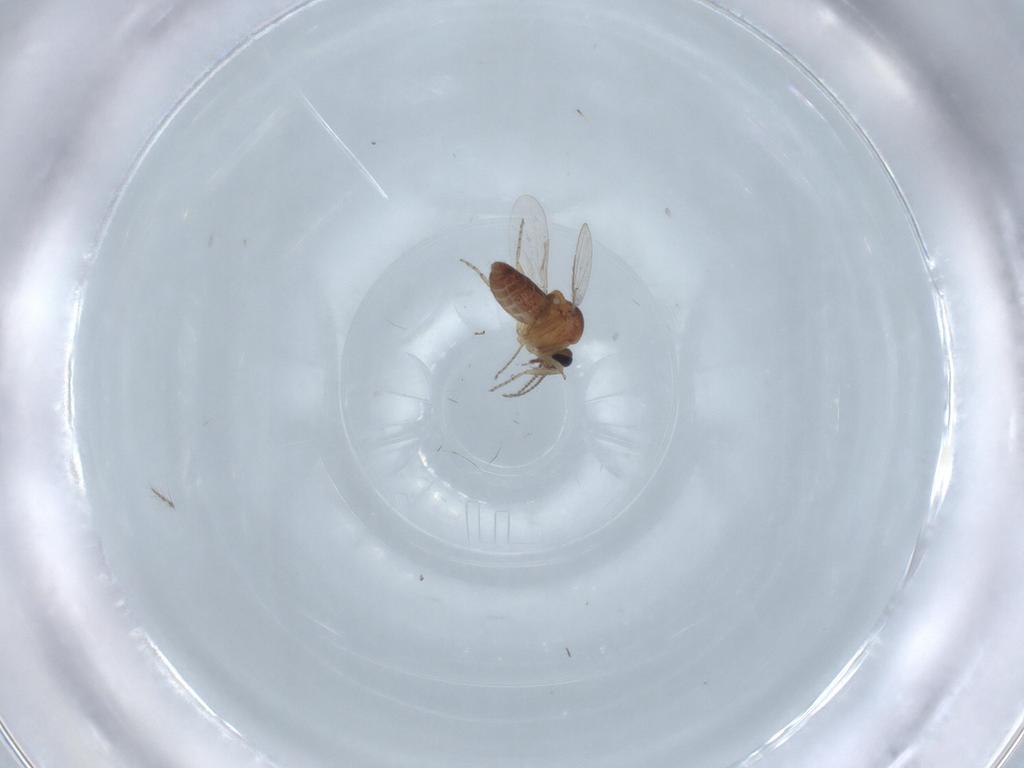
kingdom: Animalia
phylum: Arthropoda
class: Insecta
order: Diptera
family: Ceratopogonidae
